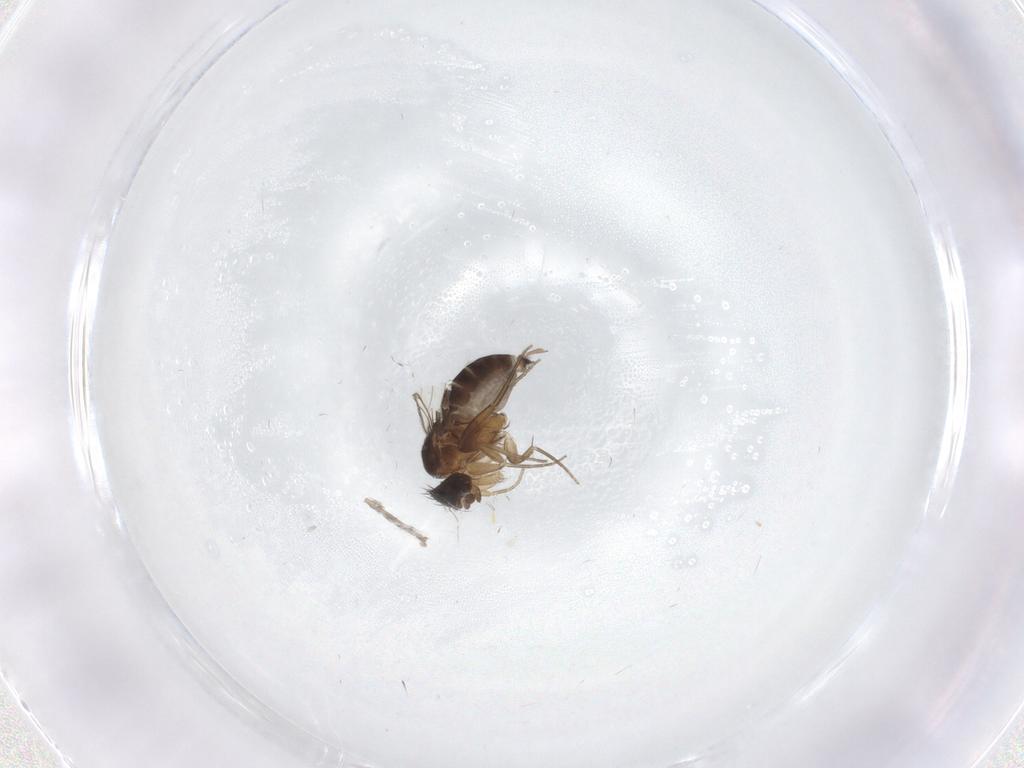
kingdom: Animalia
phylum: Arthropoda
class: Insecta
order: Diptera
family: Phoridae
